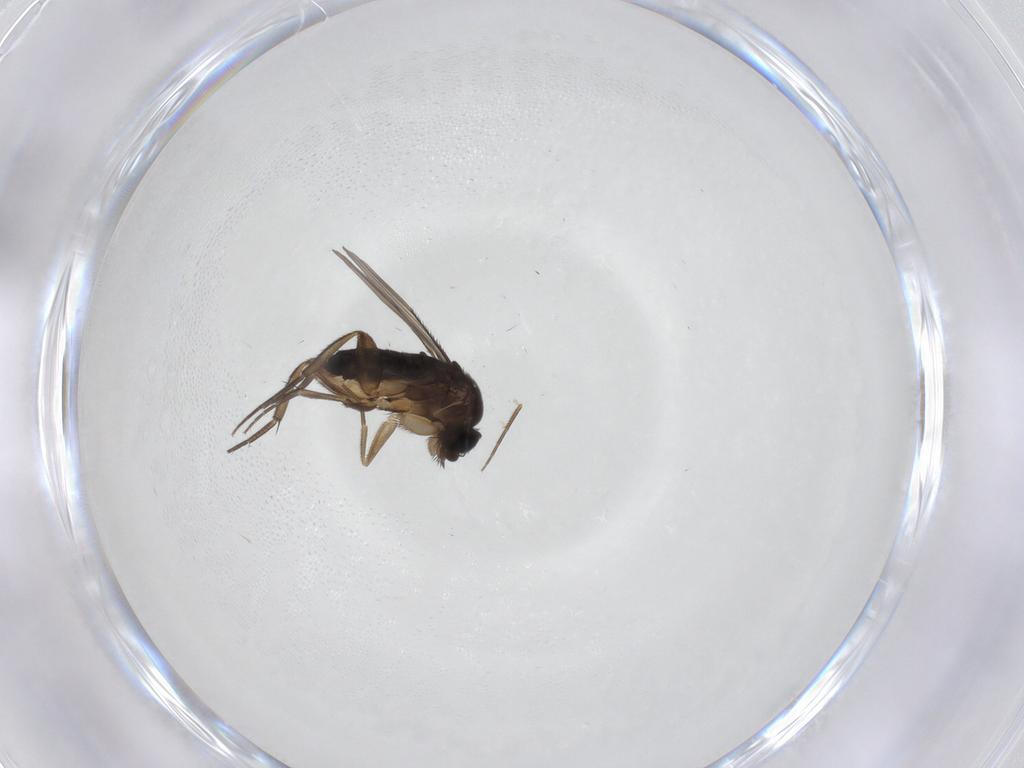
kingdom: Animalia
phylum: Arthropoda
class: Insecta
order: Diptera
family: Phoridae
